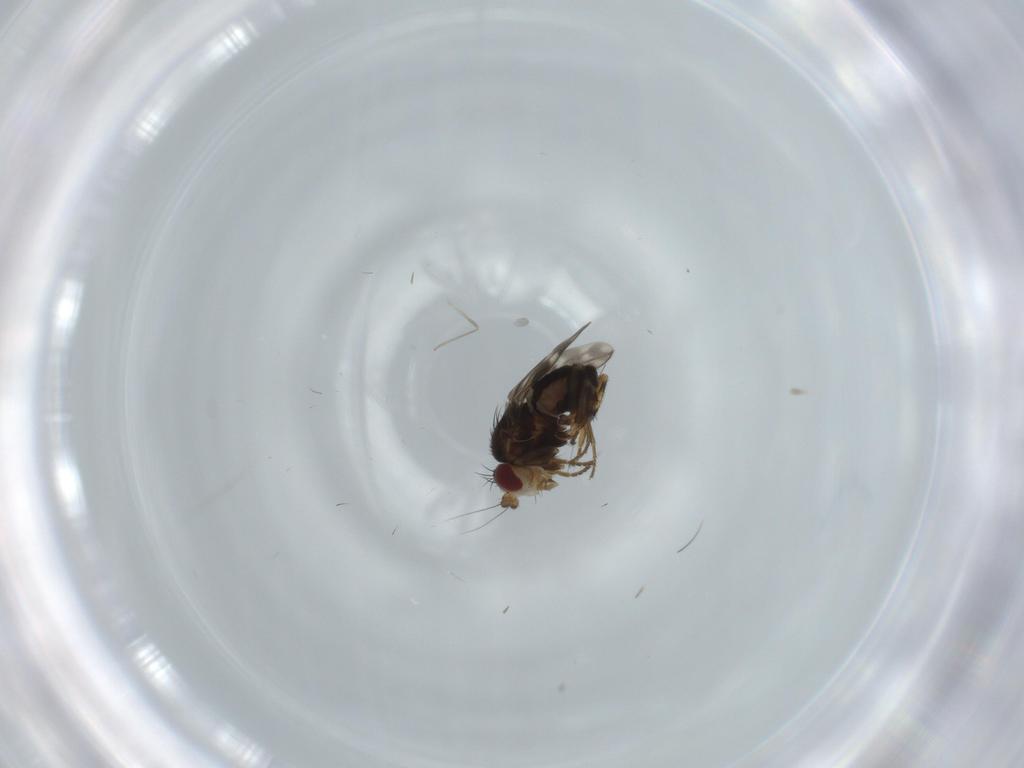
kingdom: Animalia
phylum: Arthropoda
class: Insecta
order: Diptera
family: Sphaeroceridae
